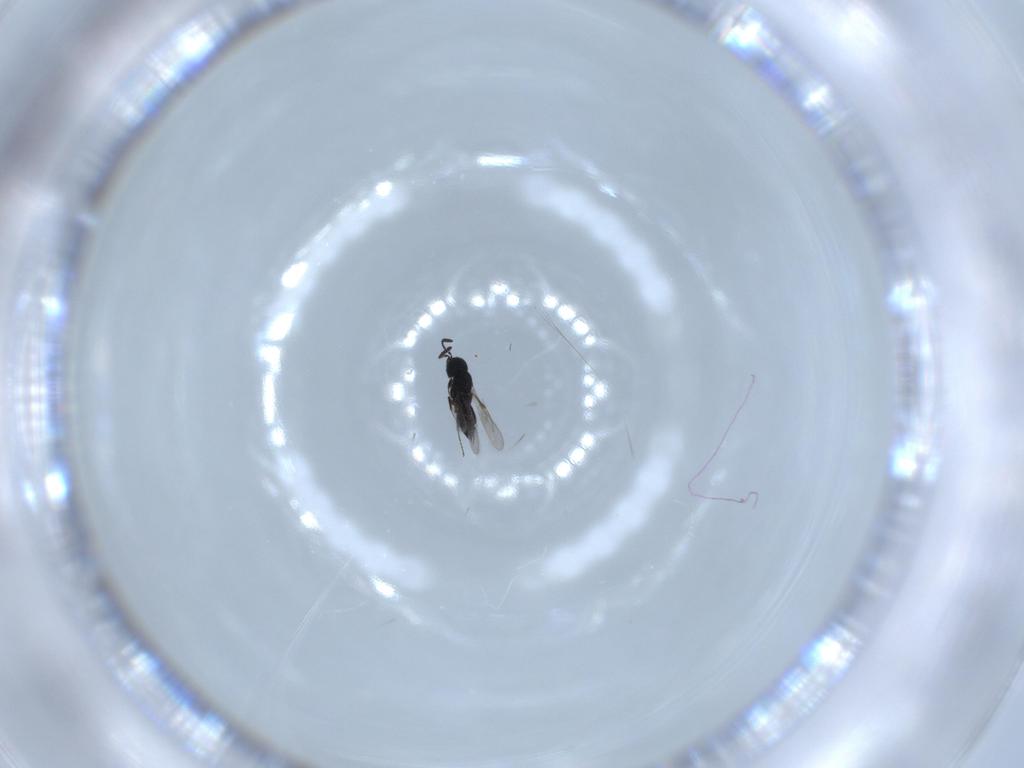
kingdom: Animalia
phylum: Arthropoda
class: Insecta
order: Hymenoptera
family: Scelionidae
